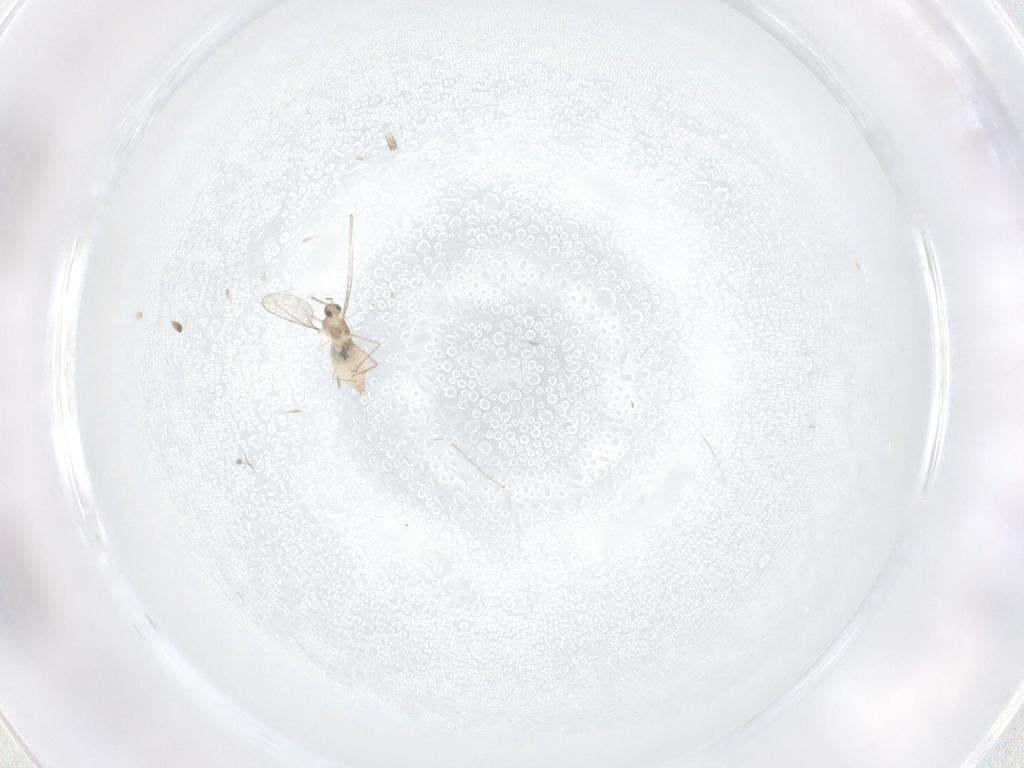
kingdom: Animalia
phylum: Arthropoda
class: Insecta
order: Diptera
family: Cecidomyiidae
